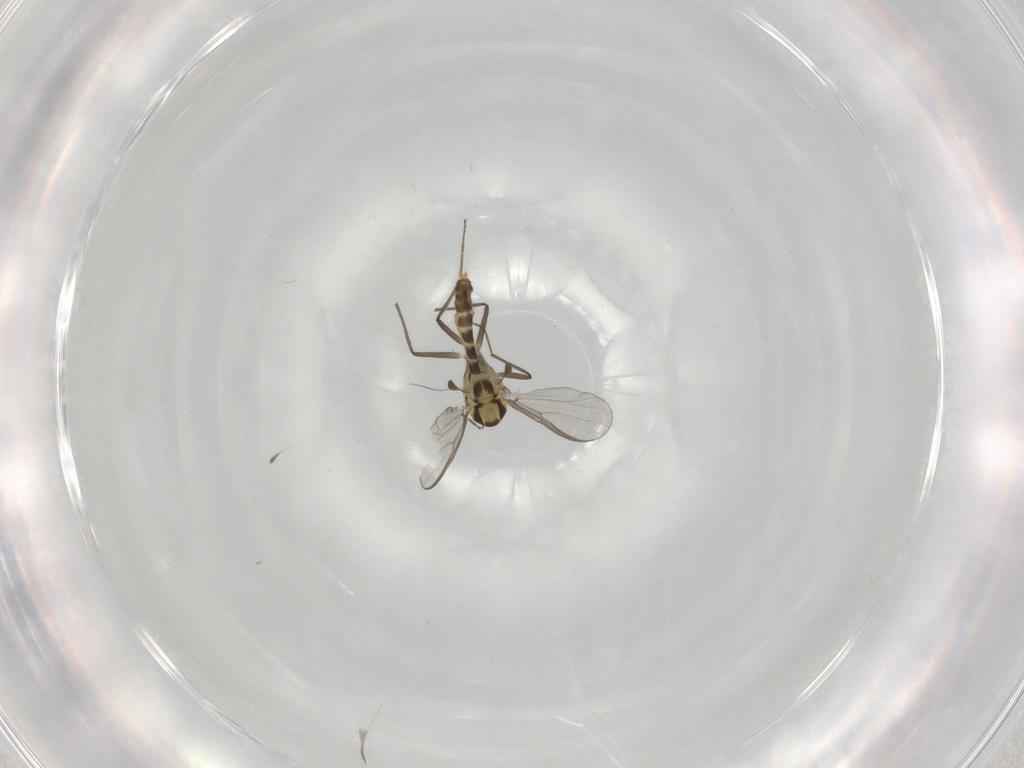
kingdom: Animalia
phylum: Arthropoda
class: Insecta
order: Diptera
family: Chironomidae
